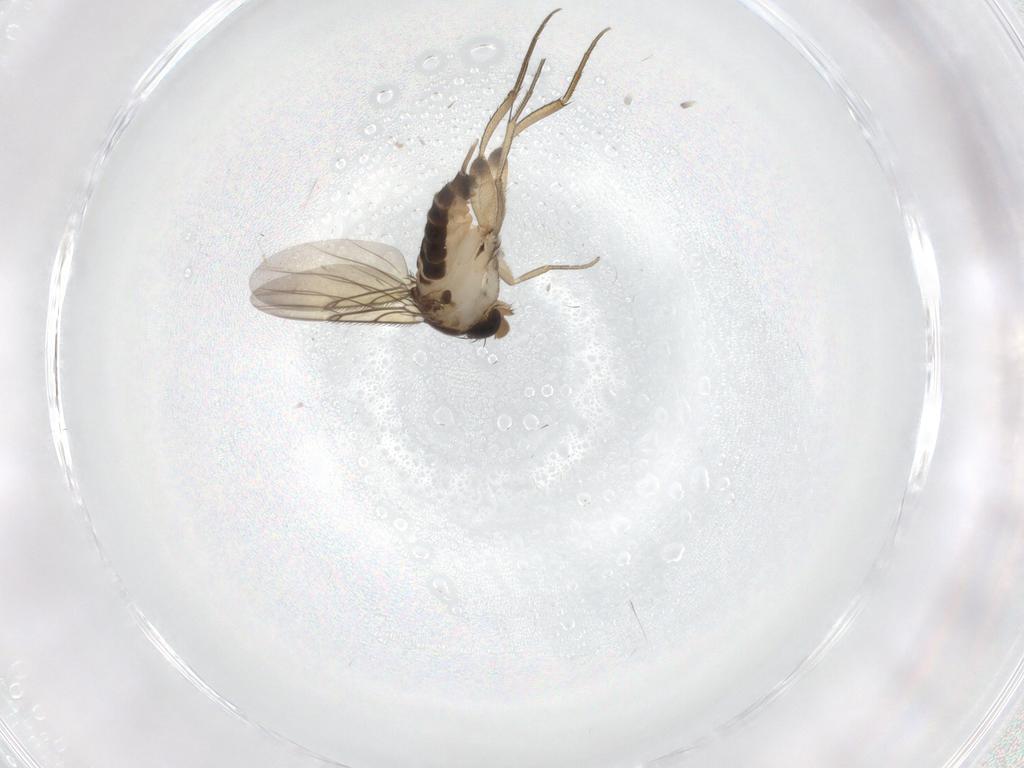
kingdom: Animalia
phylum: Arthropoda
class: Insecta
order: Diptera
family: Phoridae
